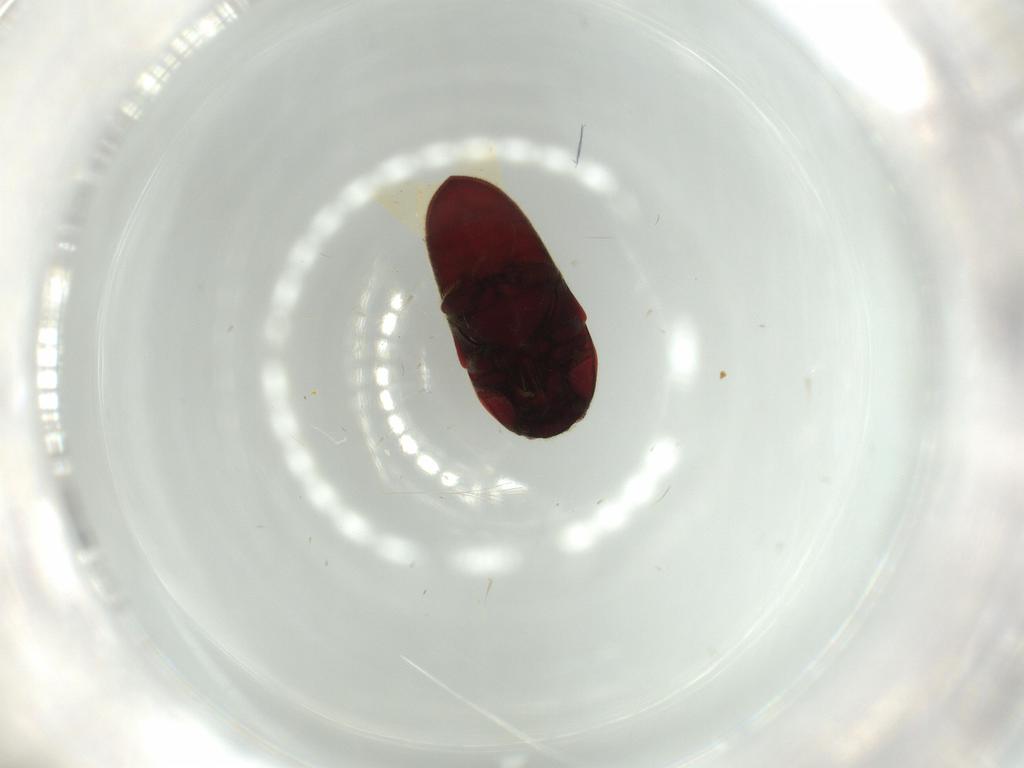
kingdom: Animalia
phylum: Arthropoda
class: Insecta
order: Coleoptera
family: Throscidae
